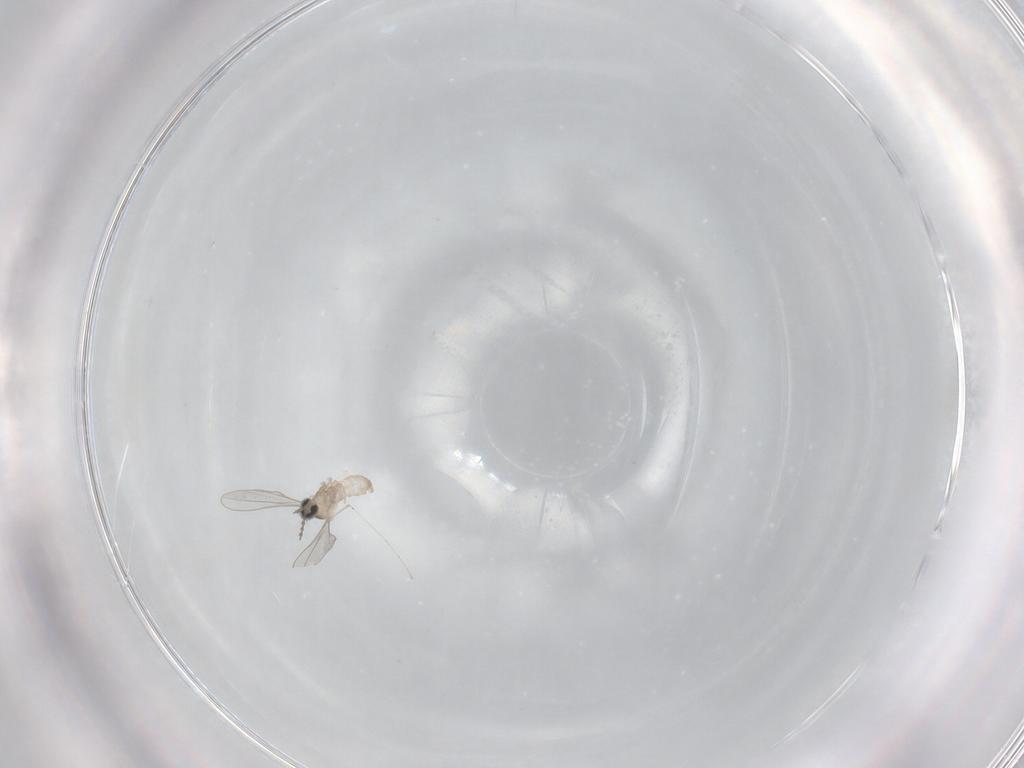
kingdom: Animalia
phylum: Arthropoda
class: Insecta
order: Diptera
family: Cecidomyiidae
